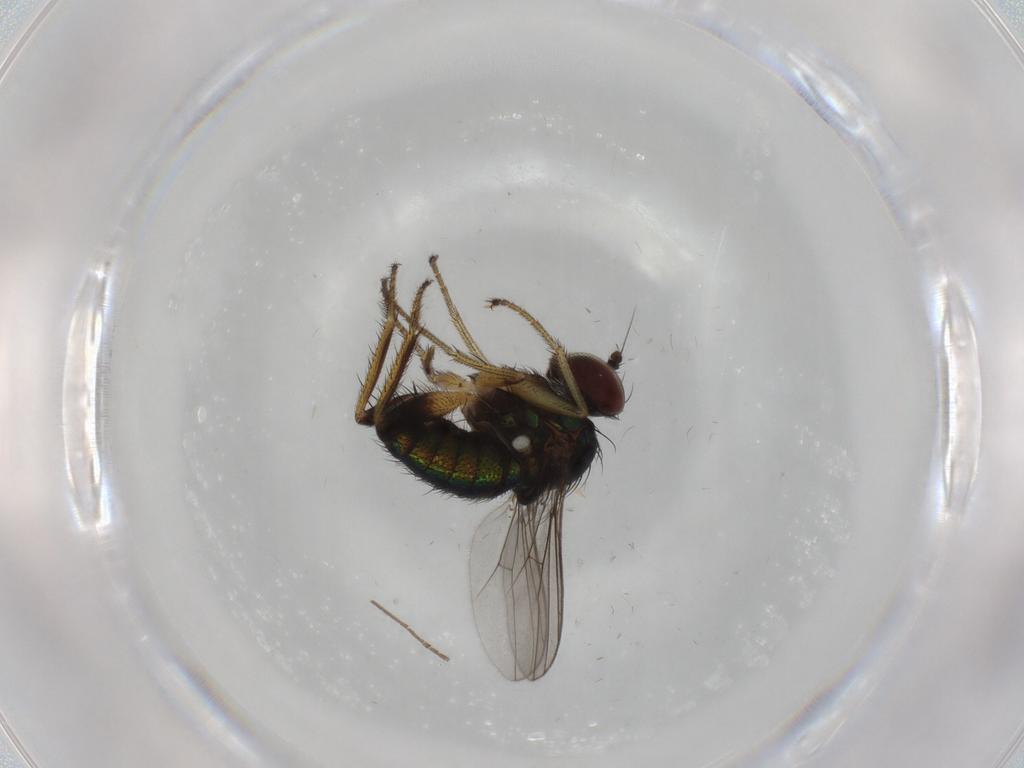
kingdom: Animalia
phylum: Arthropoda
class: Insecta
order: Diptera
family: Dolichopodidae
